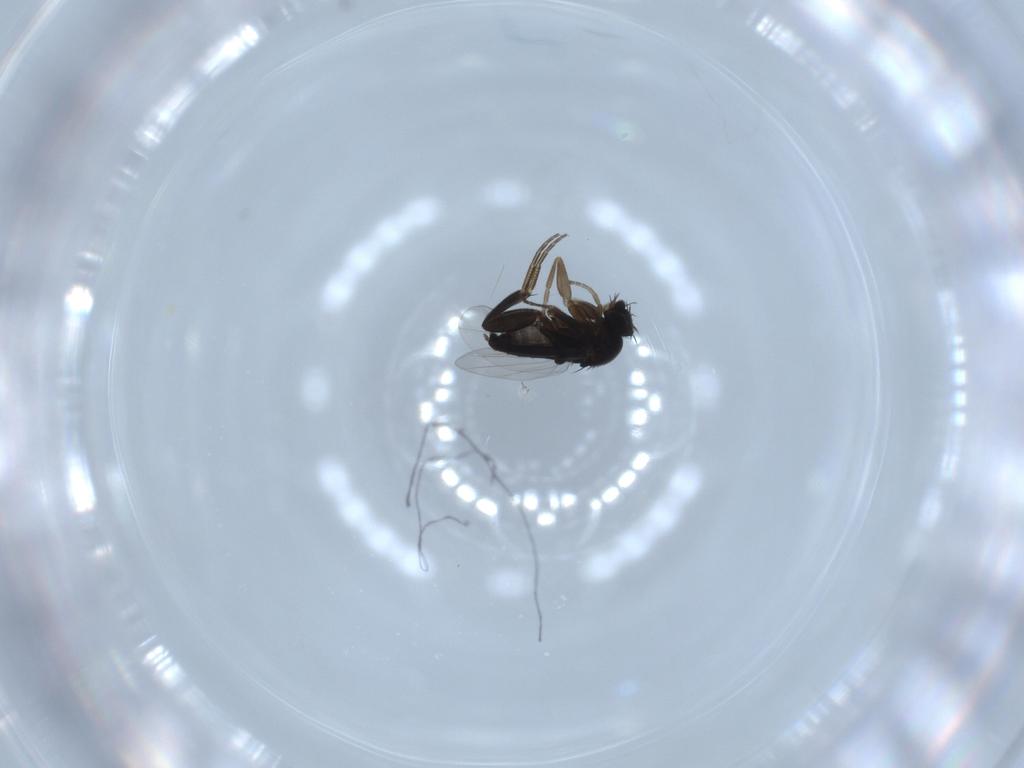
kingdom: Animalia
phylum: Arthropoda
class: Insecta
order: Diptera
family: Phoridae
